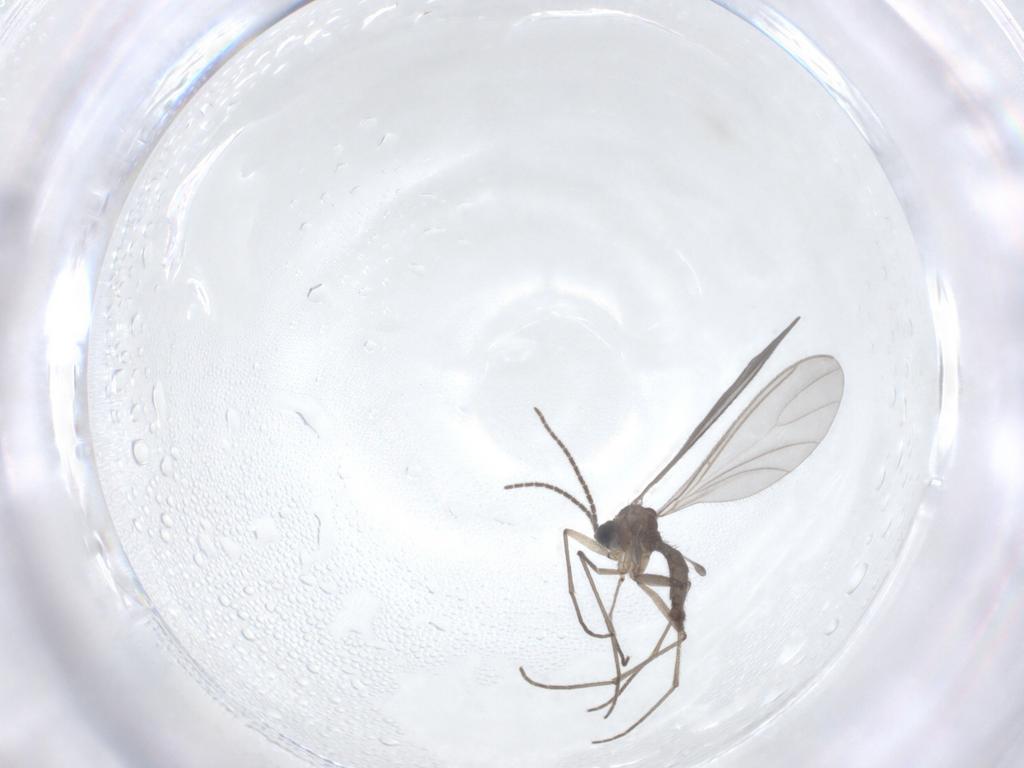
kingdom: Animalia
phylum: Arthropoda
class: Insecta
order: Diptera
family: Sciaridae
